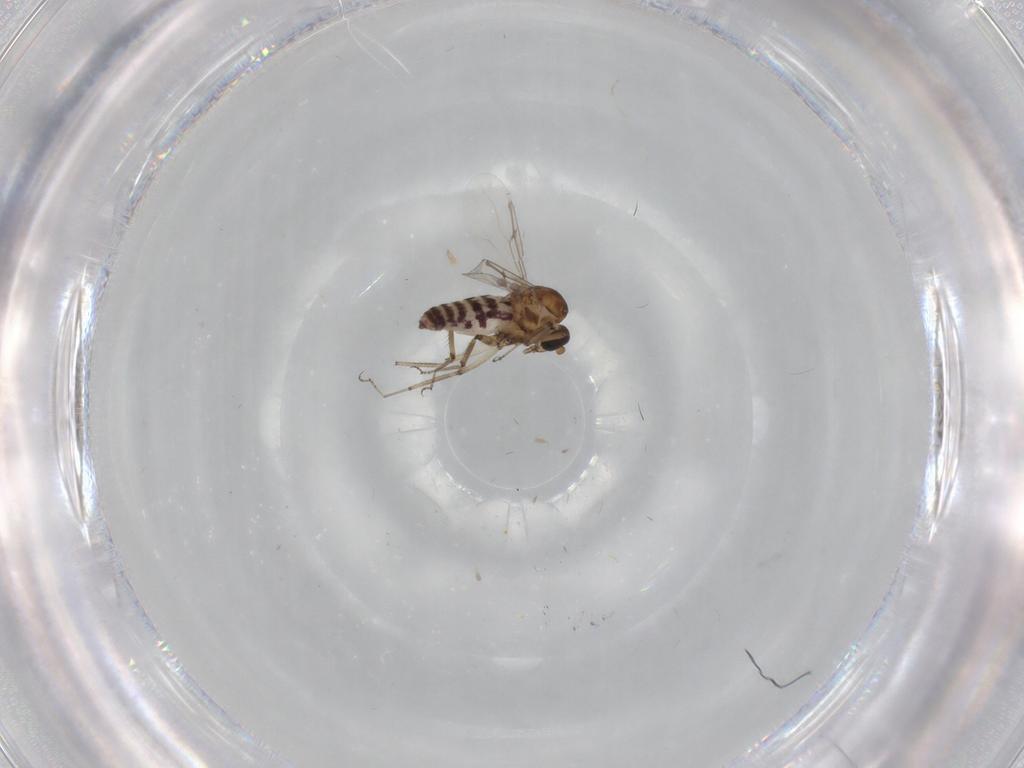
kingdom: Animalia
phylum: Arthropoda
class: Insecta
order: Diptera
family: Ceratopogonidae
